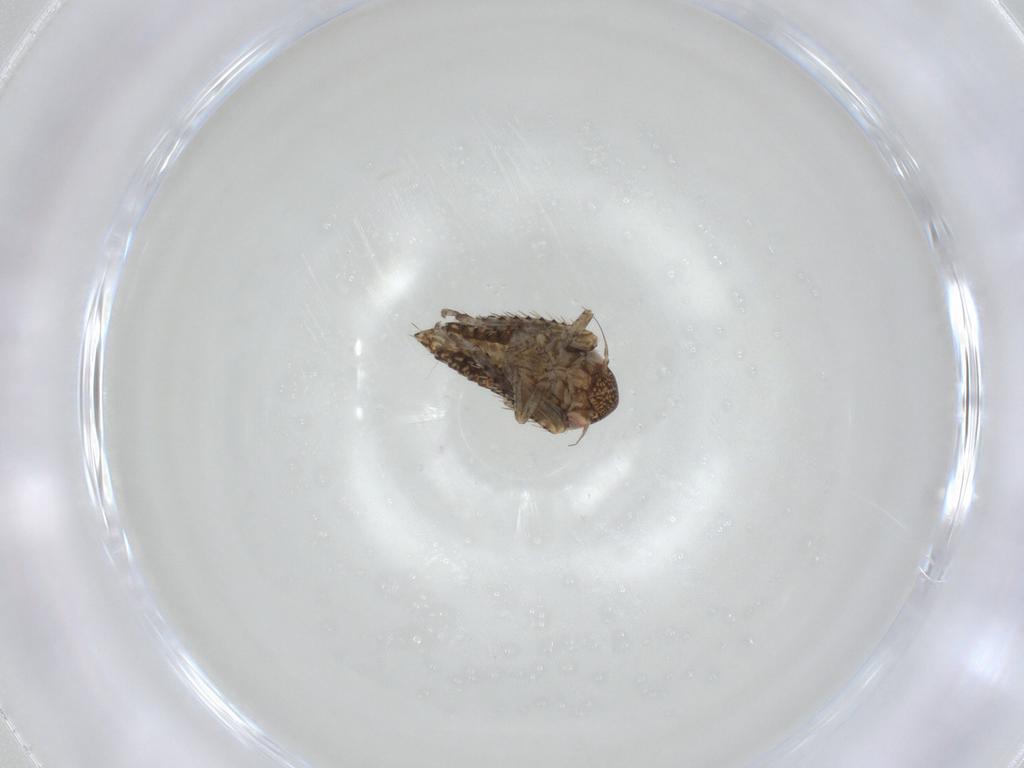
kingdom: Animalia
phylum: Arthropoda
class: Insecta
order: Hemiptera
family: Cicadellidae
